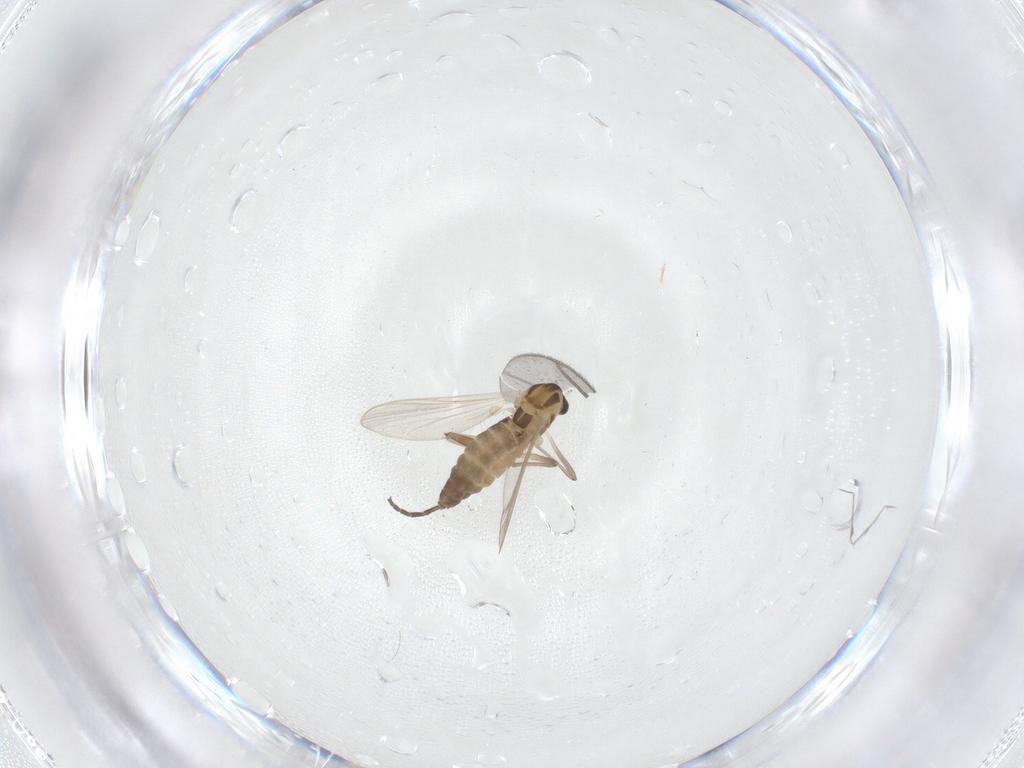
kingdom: Animalia
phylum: Arthropoda
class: Insecta
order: Diptera
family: Chironomidae
